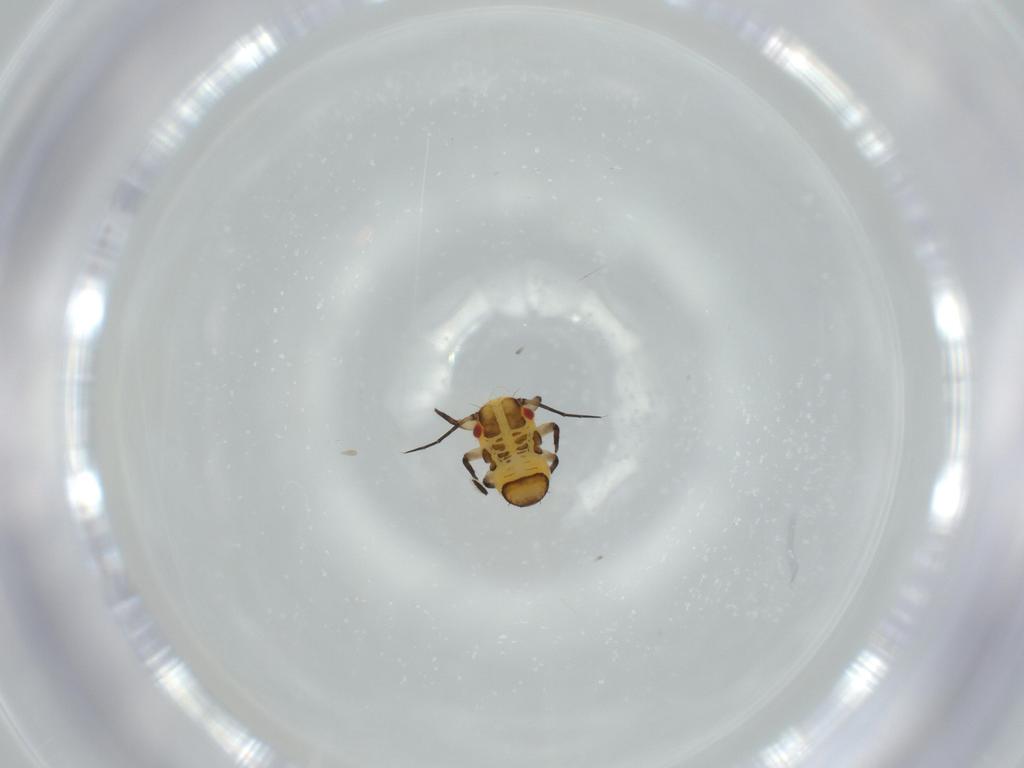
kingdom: Animalia
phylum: Arthropoda
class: Insecta
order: Hemiptera
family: Psyllidae
